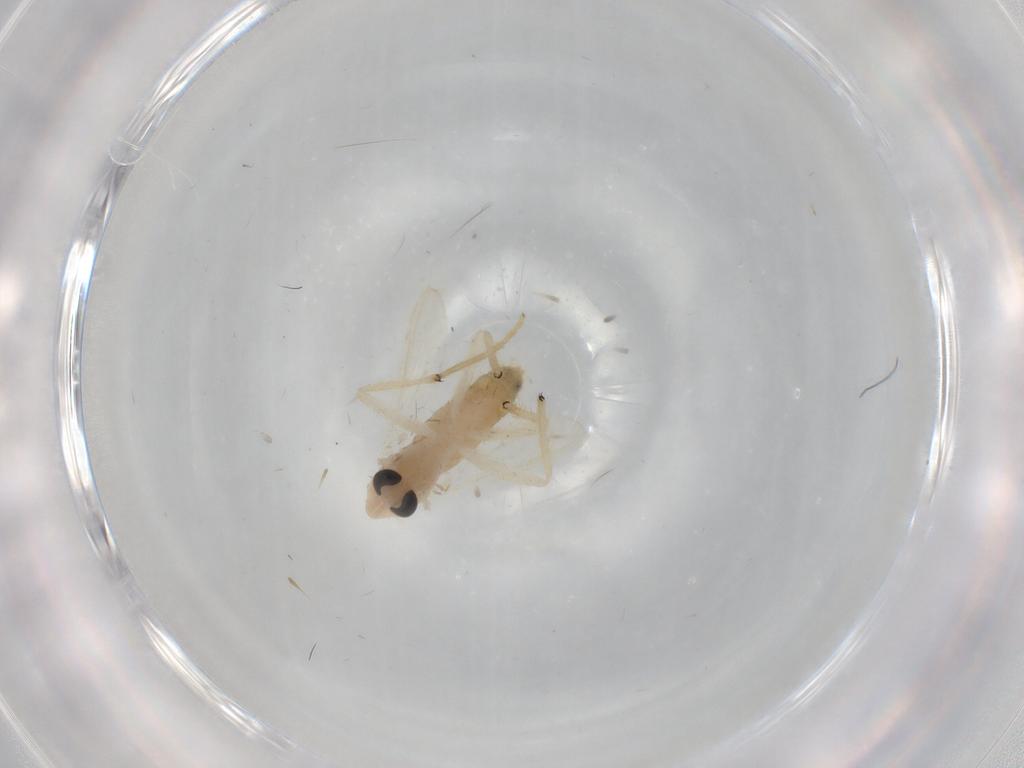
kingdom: Animalia
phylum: Arthropoda
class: Insecta
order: Diptera
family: Chironomidae
